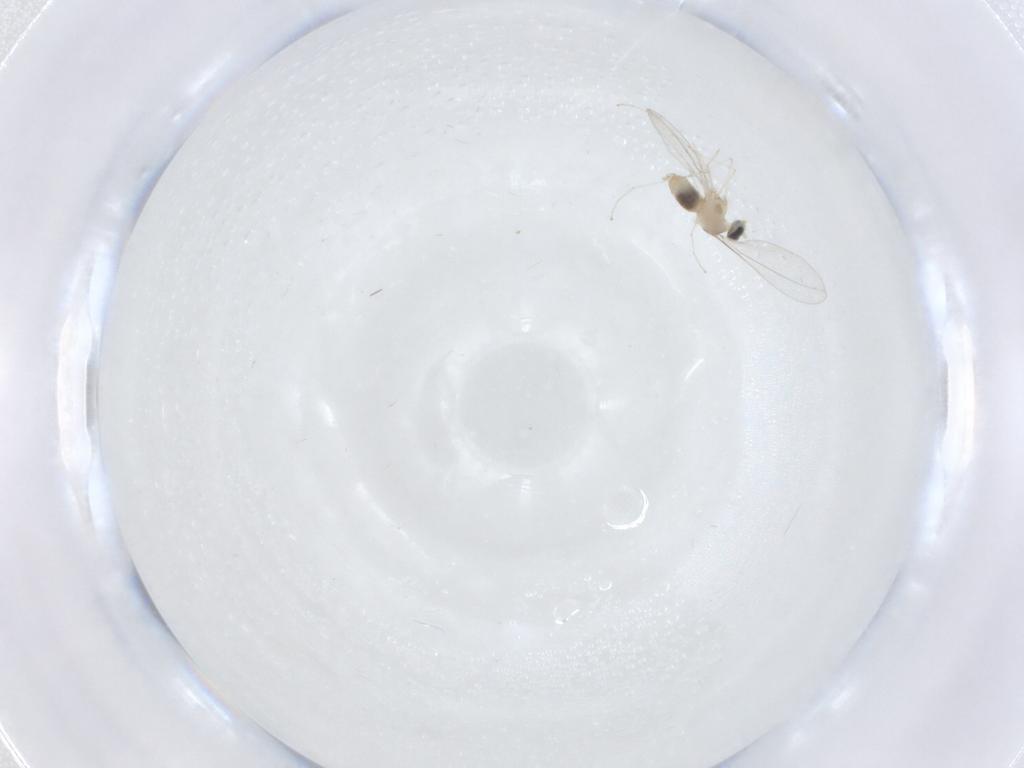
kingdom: Animalia
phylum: Arthropoda
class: Insecta
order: Diptera
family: Cecidomyiidae
